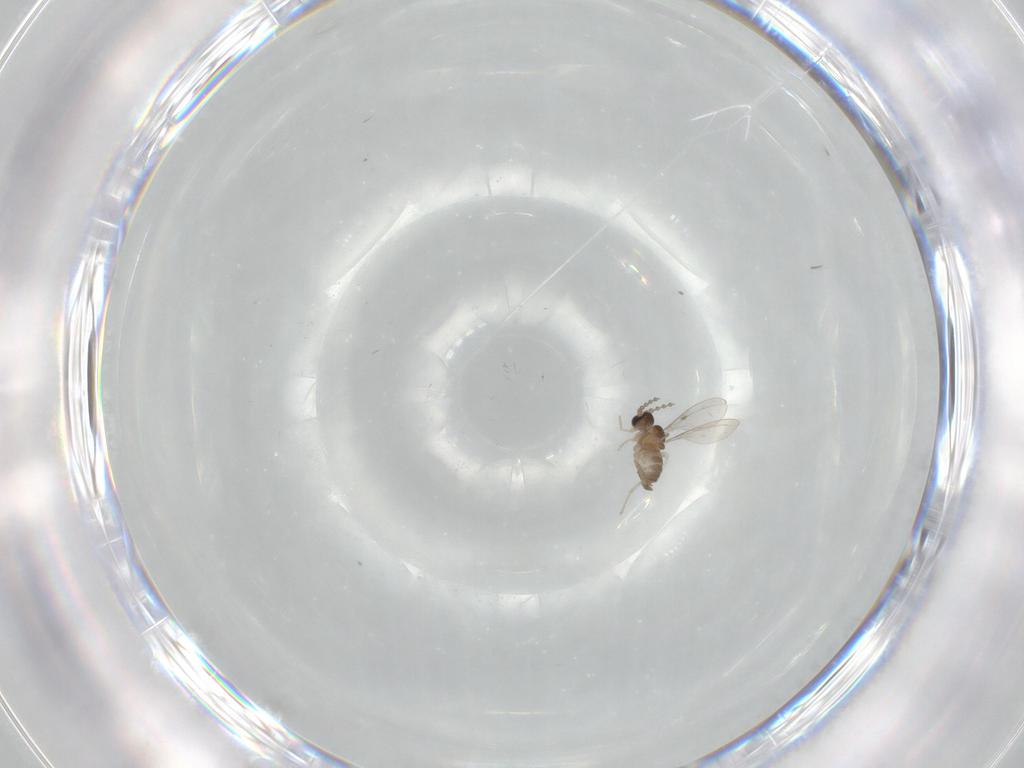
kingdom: Animalia
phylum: Arthropoda
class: Insecta
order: Diptera
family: Cecidomyiidae
